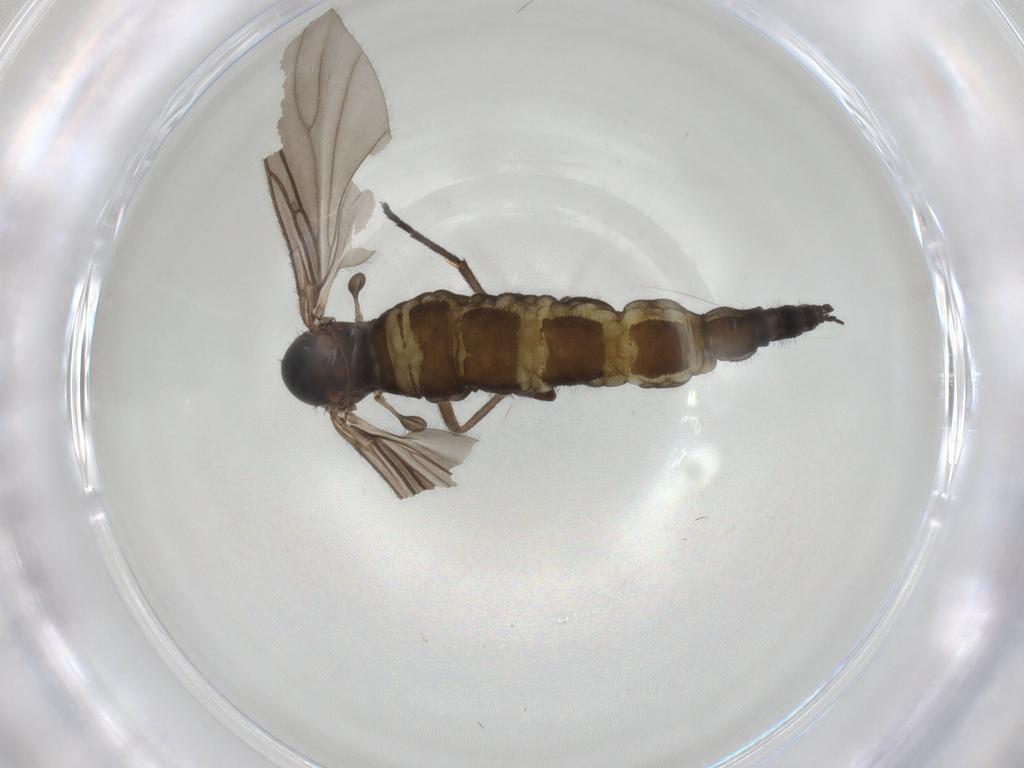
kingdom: Animalia
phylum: Arthropoda
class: Insecta
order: Diptera
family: Sciaridae
